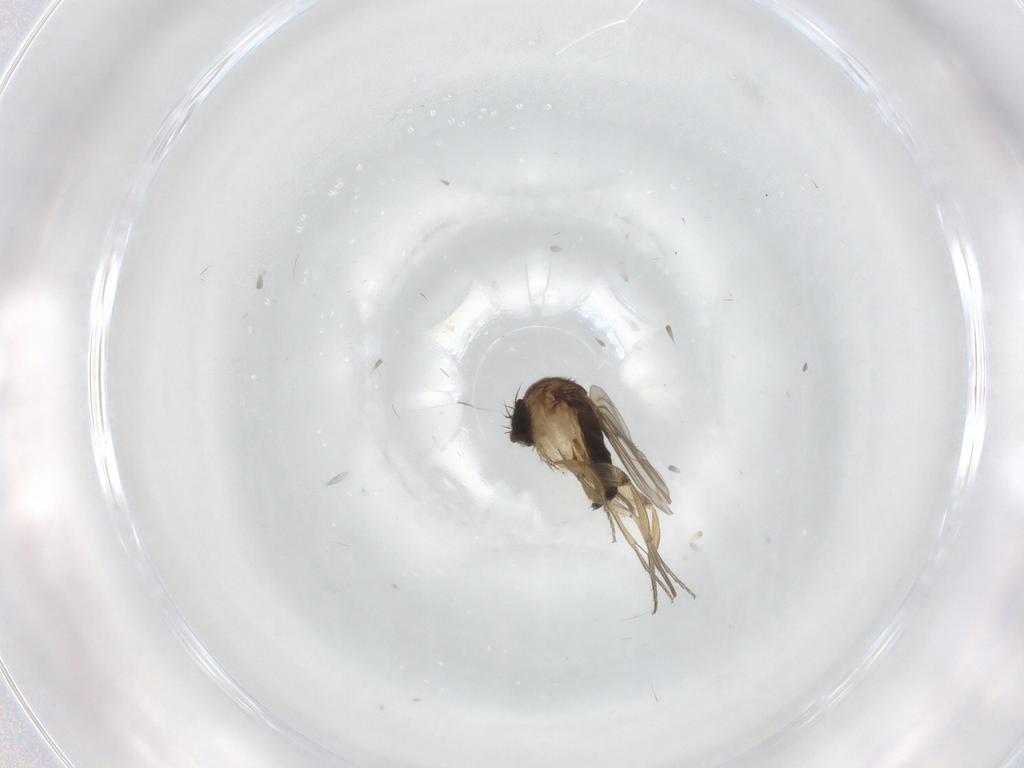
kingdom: Animalia
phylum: Arthropoda
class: Insecta
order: Diptera
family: Phoridae
